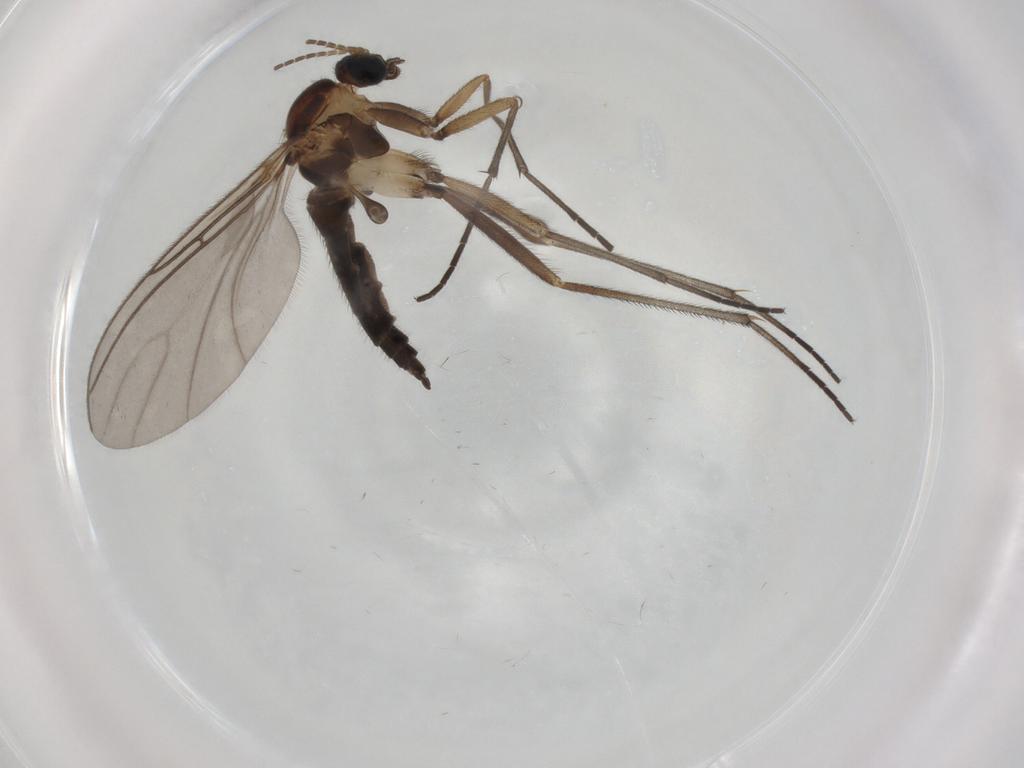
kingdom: Animalia
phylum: Arthropoda
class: Insecta
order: Diptera
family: Sciaridae
